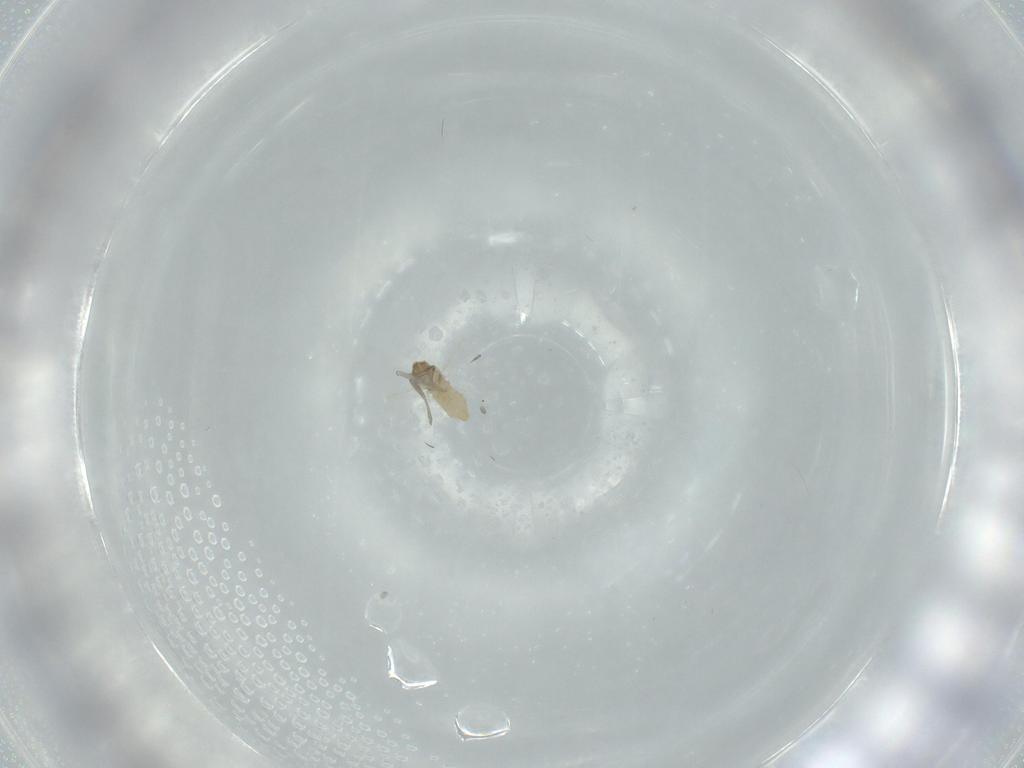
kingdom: Animalia
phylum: Arthropoda
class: Insecta
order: Diptera
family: Cecidomyiidae
